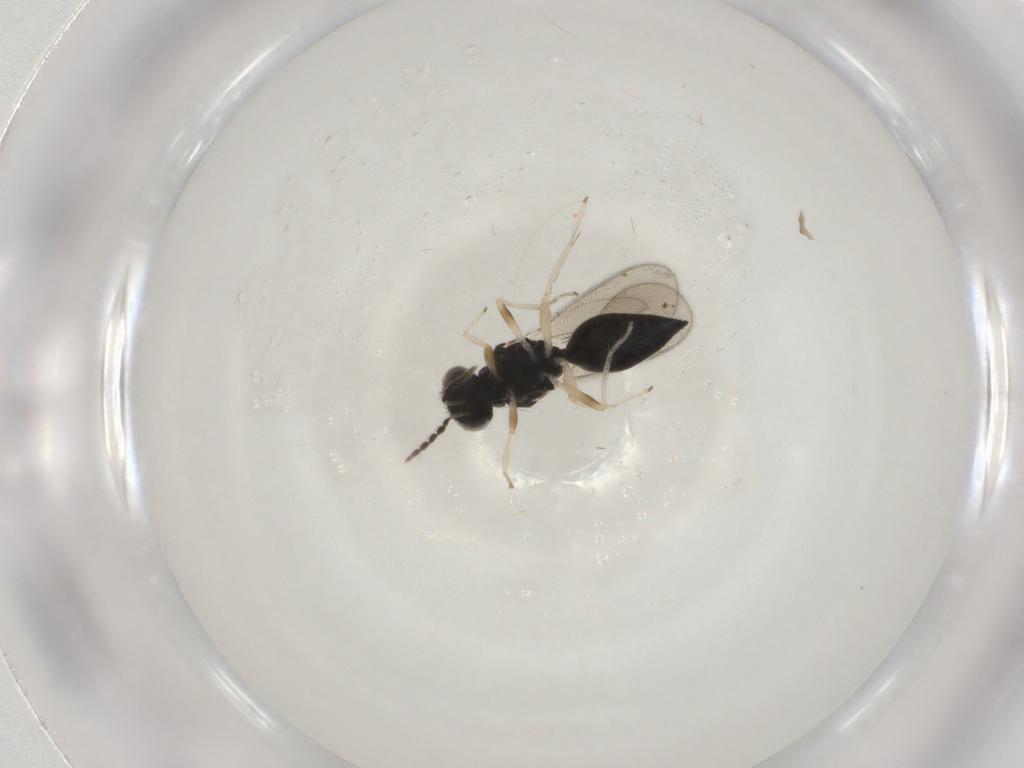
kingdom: Animalia
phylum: Arthropoda
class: Insecta
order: Hymenoptera
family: Eulophidae
